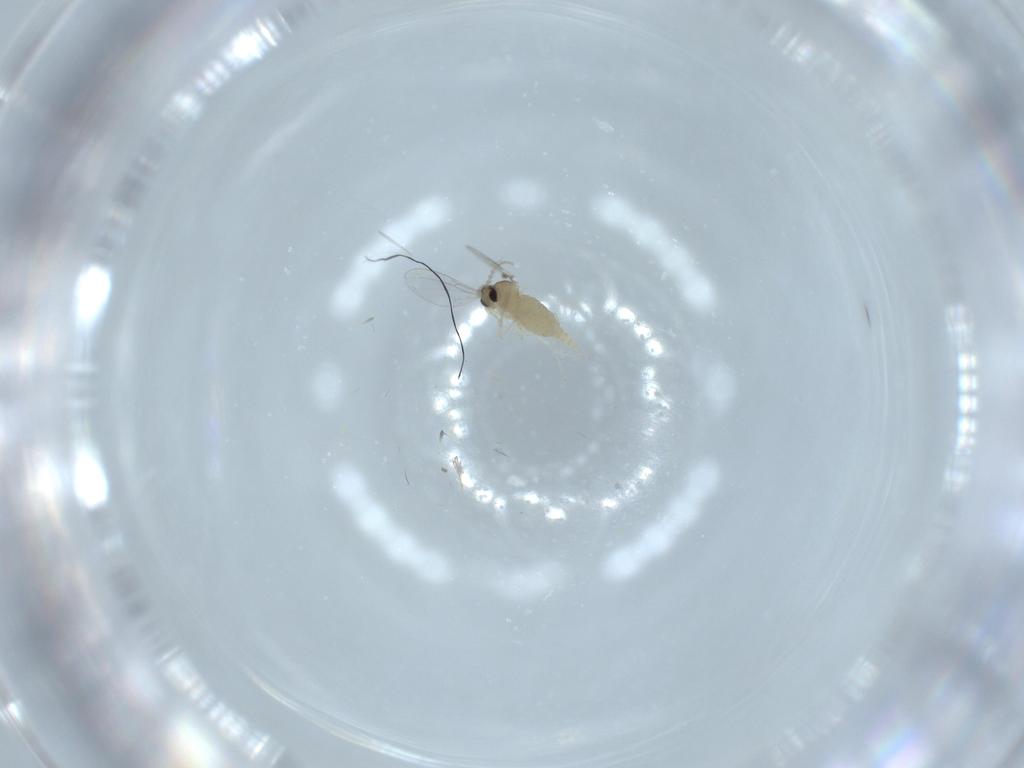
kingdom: Animalia
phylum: Arthropoda
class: Insecta
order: Diptera
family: Cecidomyiidae
